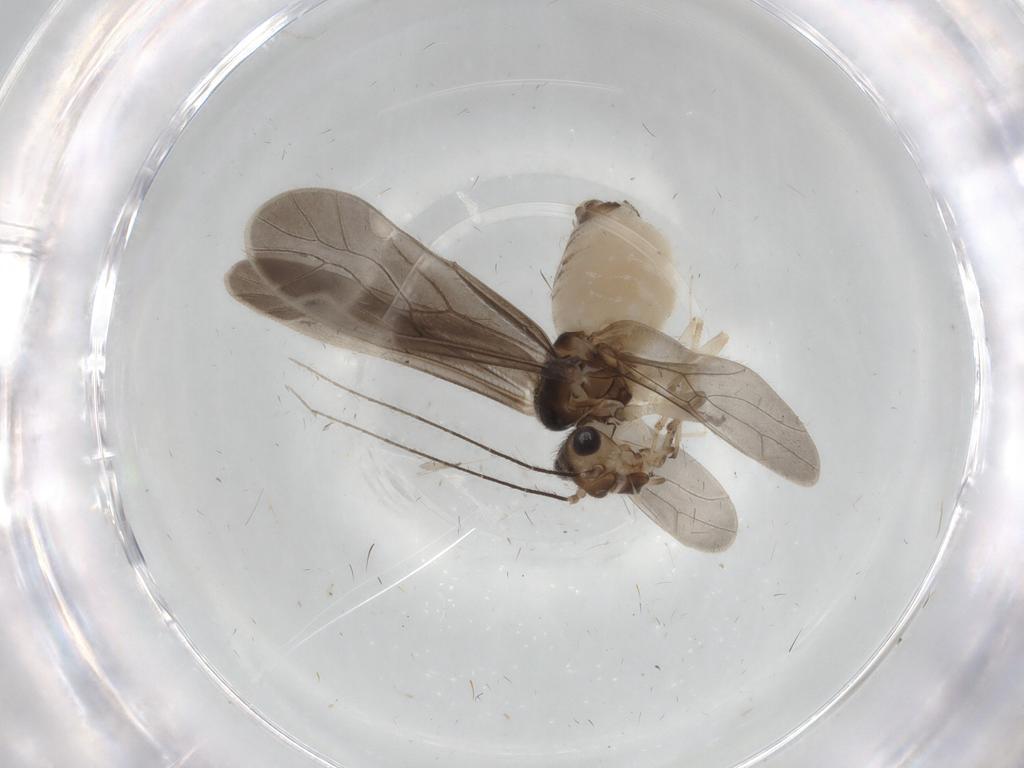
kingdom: Animalia
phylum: Arthropoda
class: Insecta
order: Psocodea
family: Caeciliusidae
